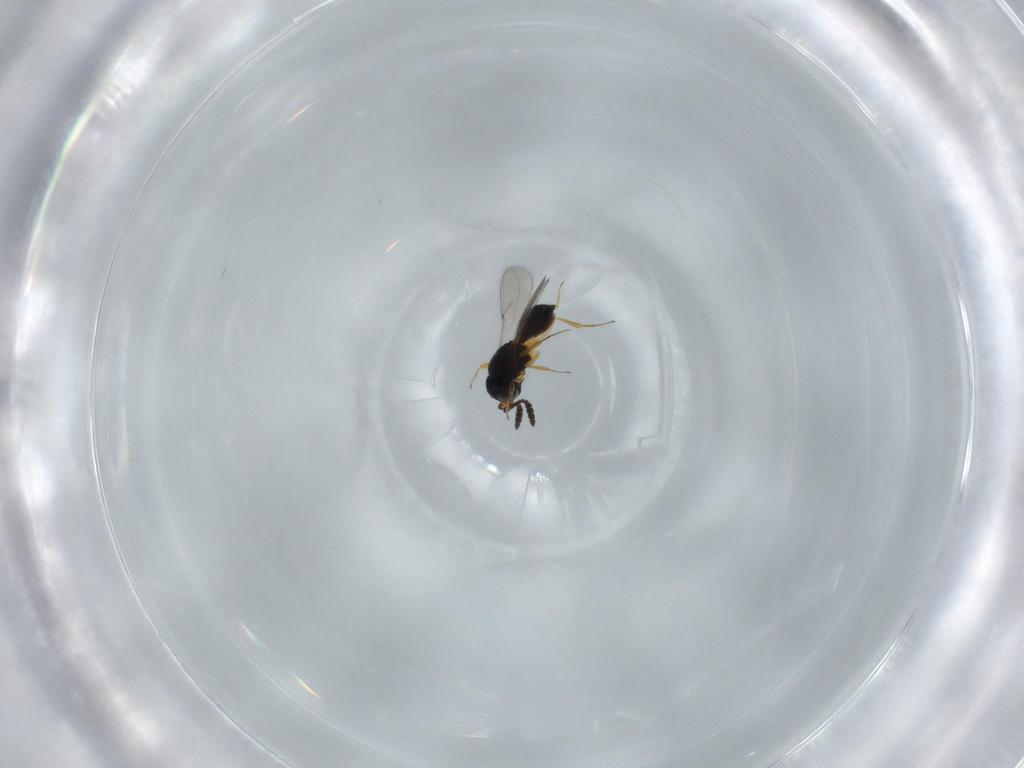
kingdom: Animalia
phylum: Arthropoda
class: Insecta
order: Hymenoptera
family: Scelionidae
